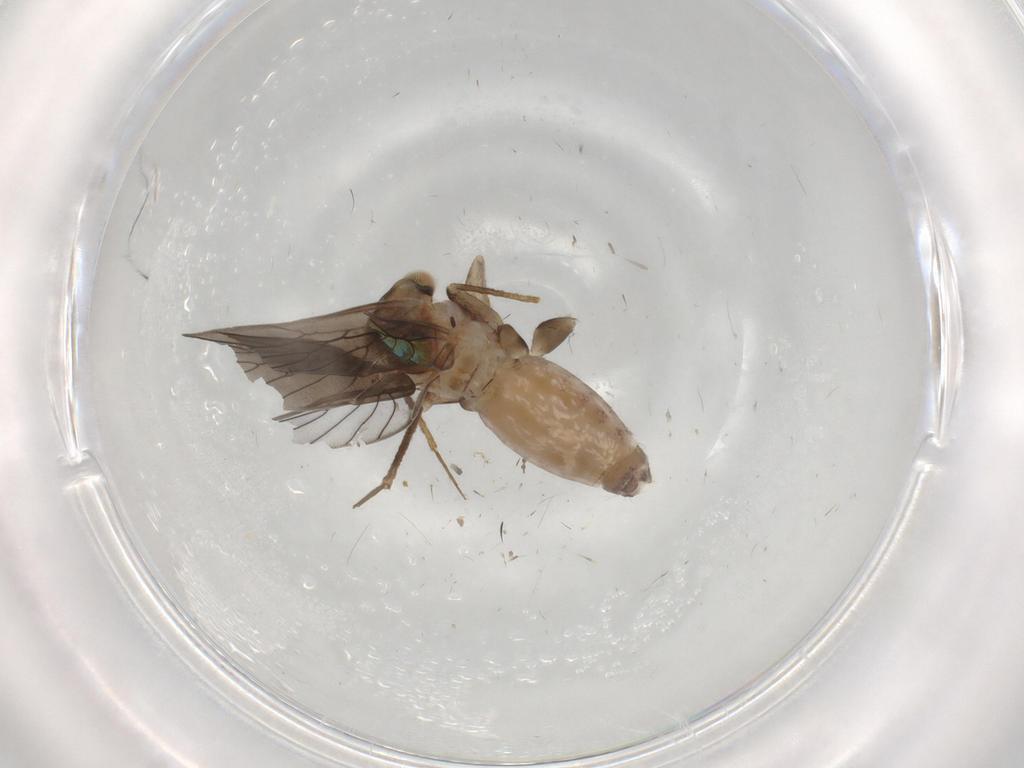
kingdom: Animalia
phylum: Arthropoda
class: Insecta
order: Psocodea
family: Lepidopsocidae
